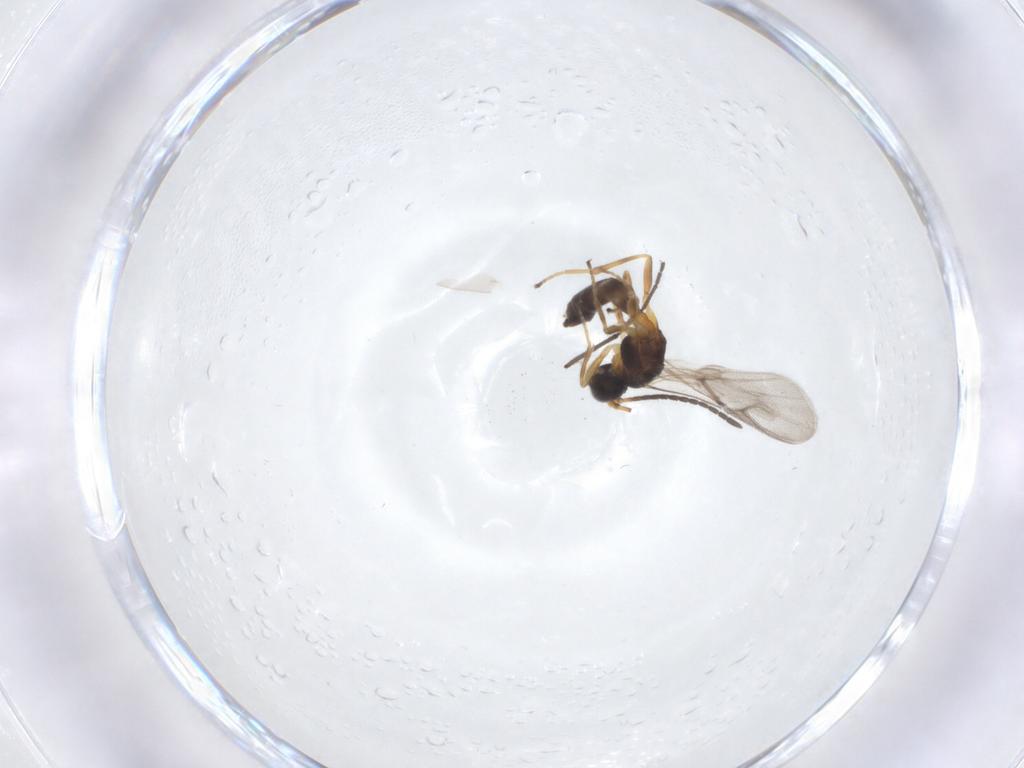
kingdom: Animalia
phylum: Arthropoda
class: Insecta
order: Hymenoptera
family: Braconidae
